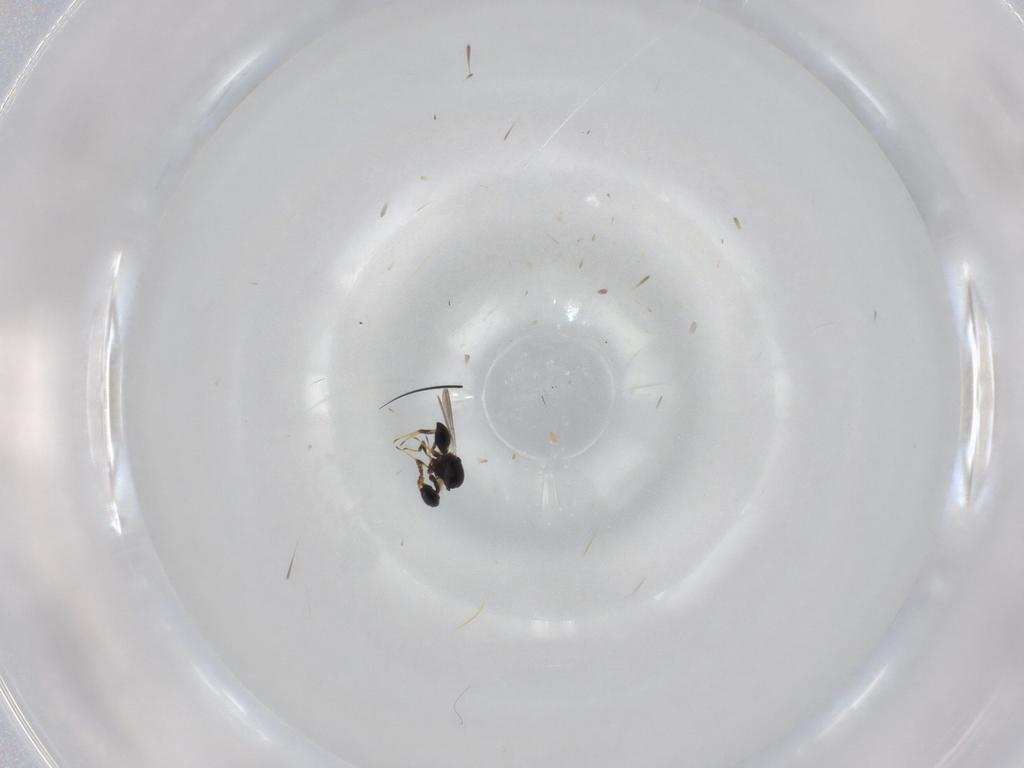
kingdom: Animalia
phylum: Arthropoda
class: Insecta
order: Hymenoptera
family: Platygastridae
